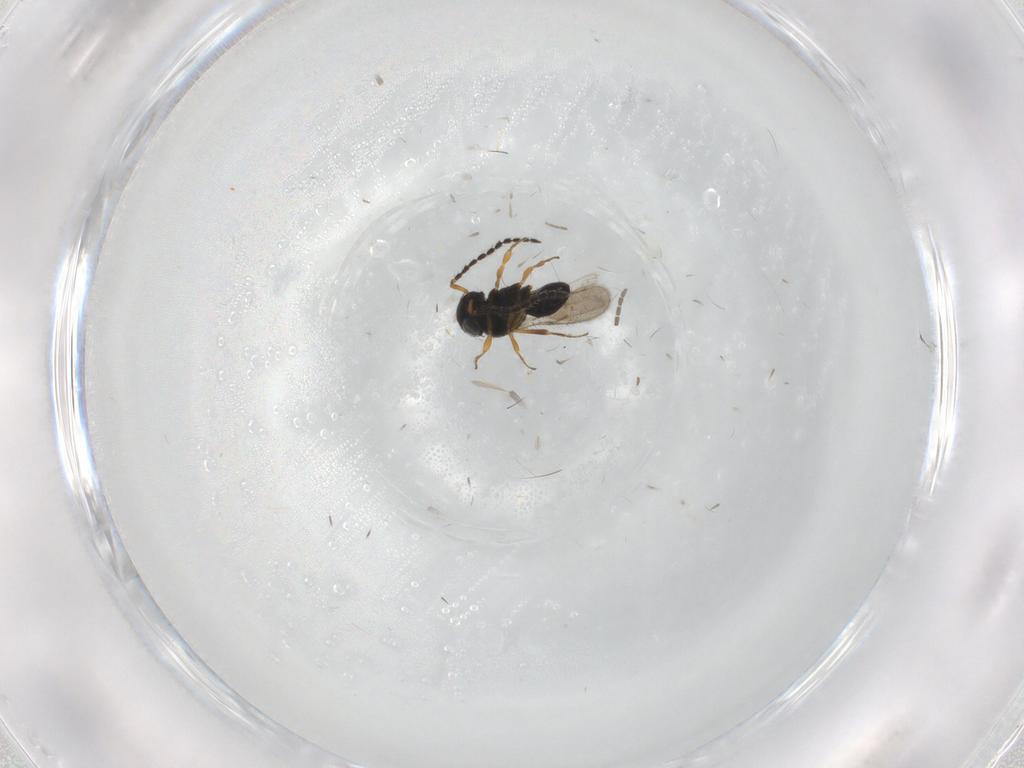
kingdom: Animalia
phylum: Arthropoda
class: Insecta
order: Hymenoptera
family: Scelionidae
